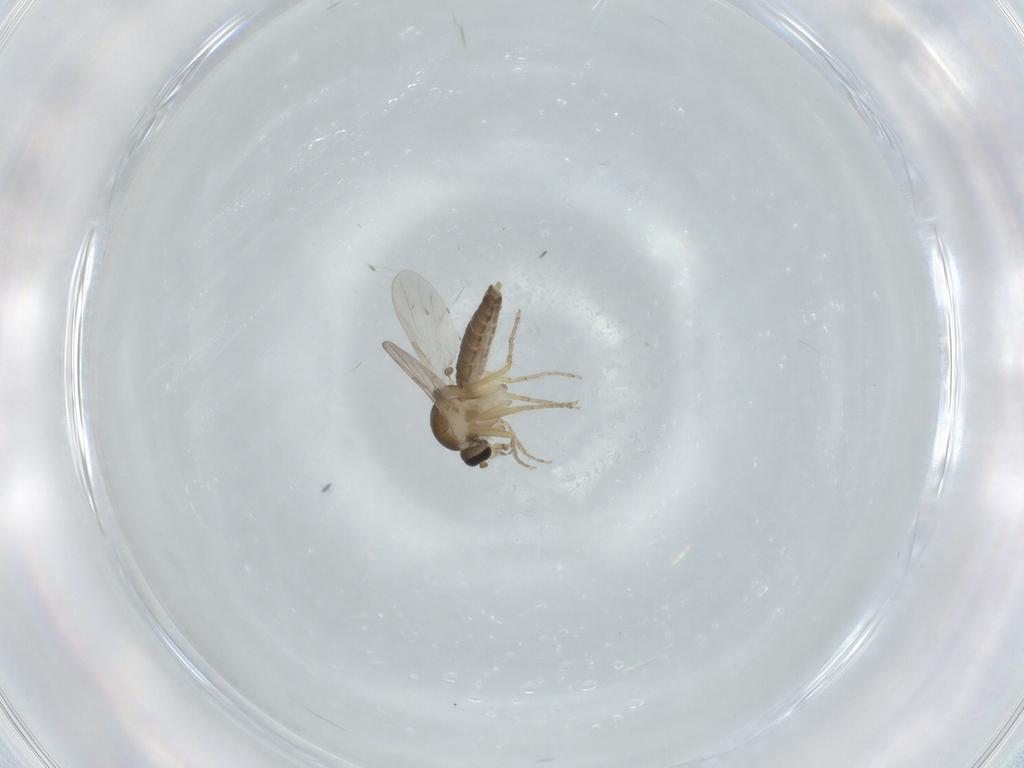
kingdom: Animalia
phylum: Arthropoda
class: Insecta
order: Diptera
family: Ceratopogonidae
